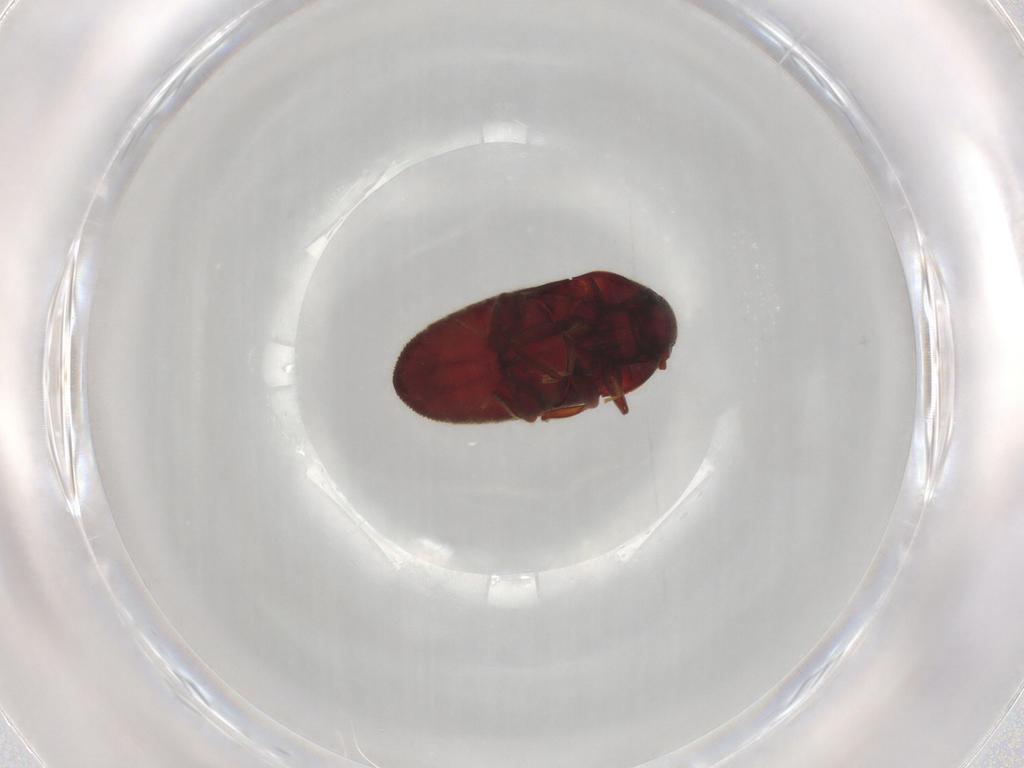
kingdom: Animalia
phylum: Arthropoda
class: Insecta
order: Coleoptera
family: Throscidae
